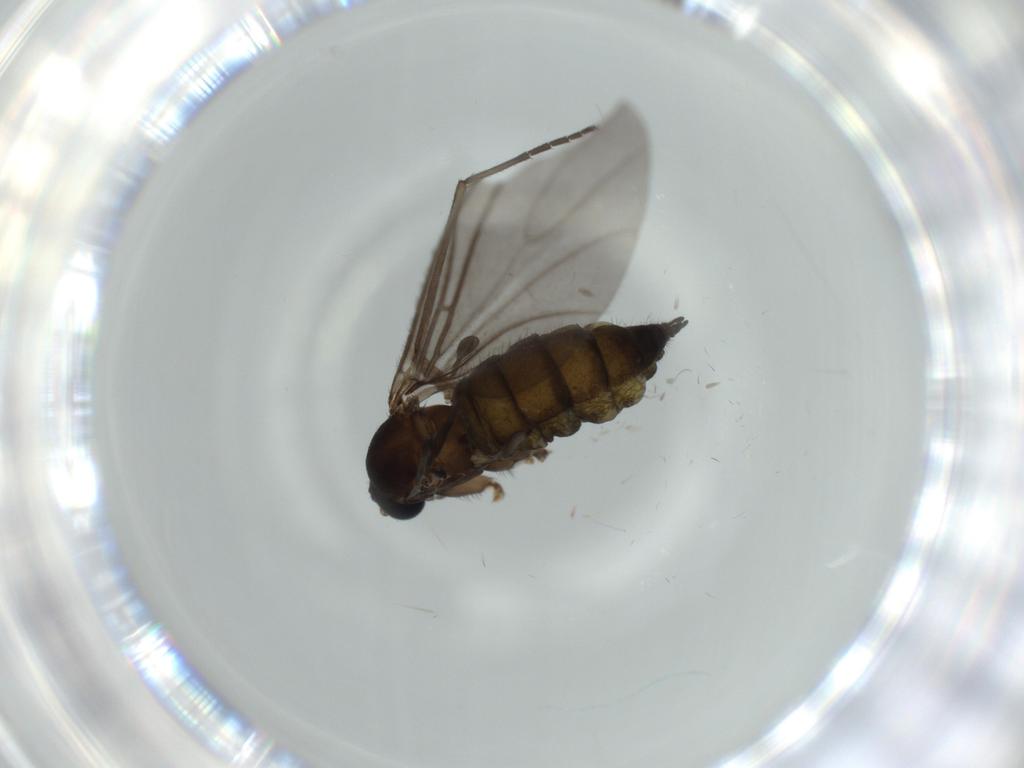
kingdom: Animalia
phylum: Arthropoda
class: Insecta
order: Diptera
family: Sciaridae
